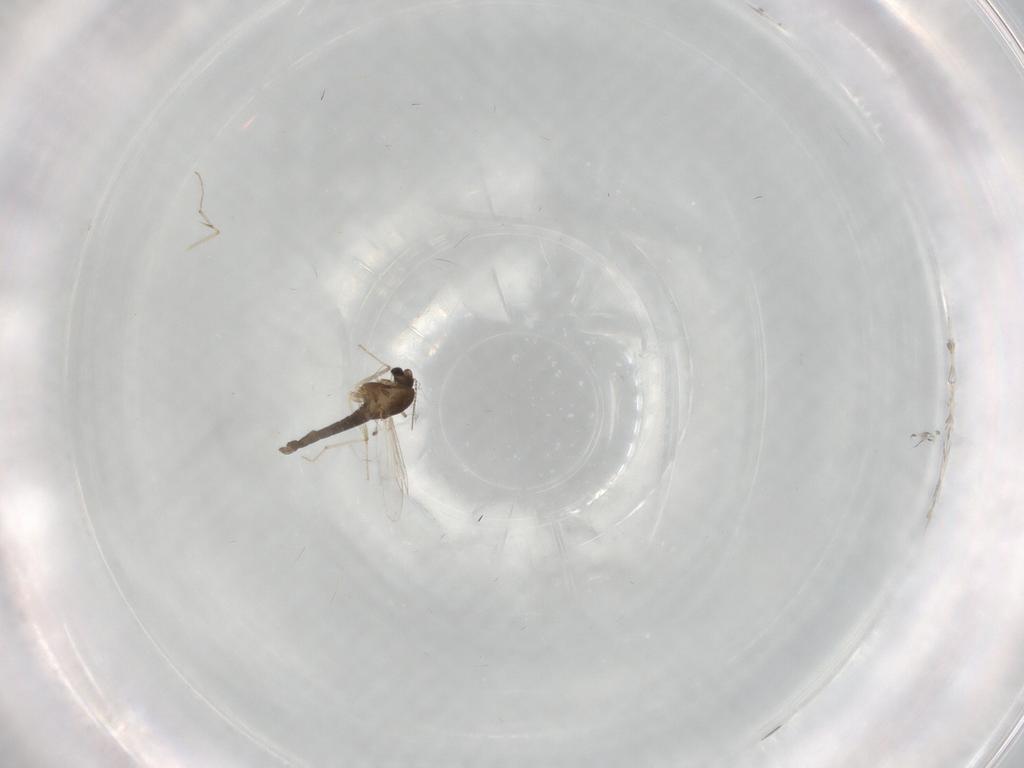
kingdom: Animalia
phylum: Arthropoda
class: Insecta
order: Diptera
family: Chironomidae
